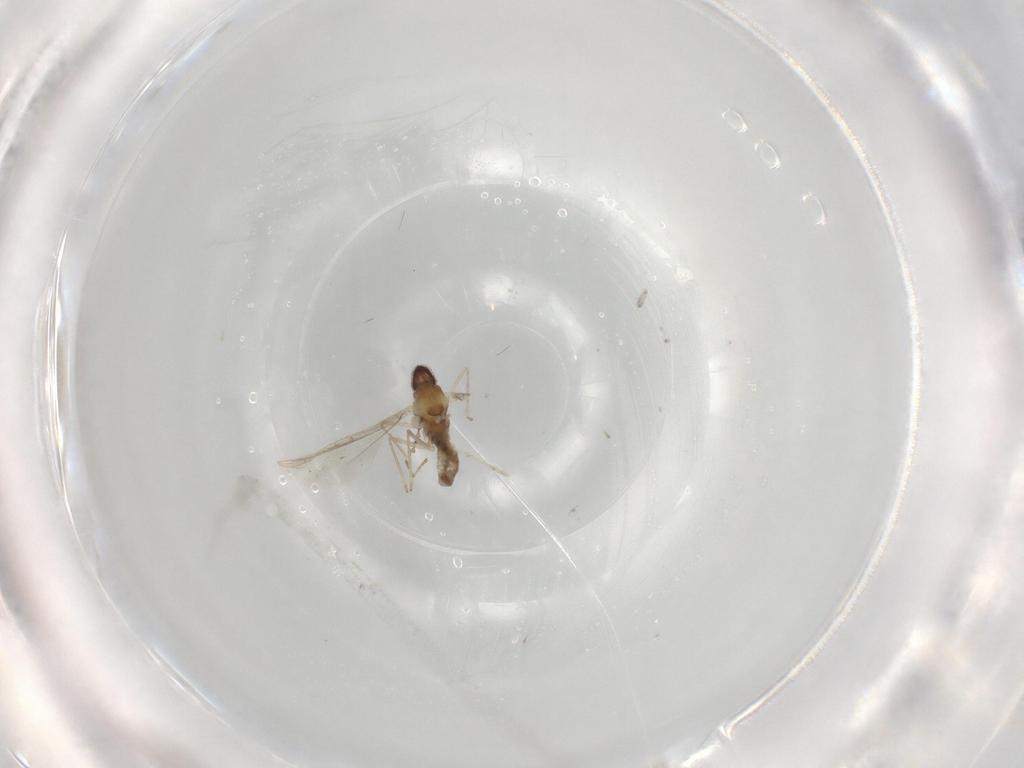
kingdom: Animalia
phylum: Arthropoda
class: Insecta
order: Diptera
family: Cecidomyiidae
